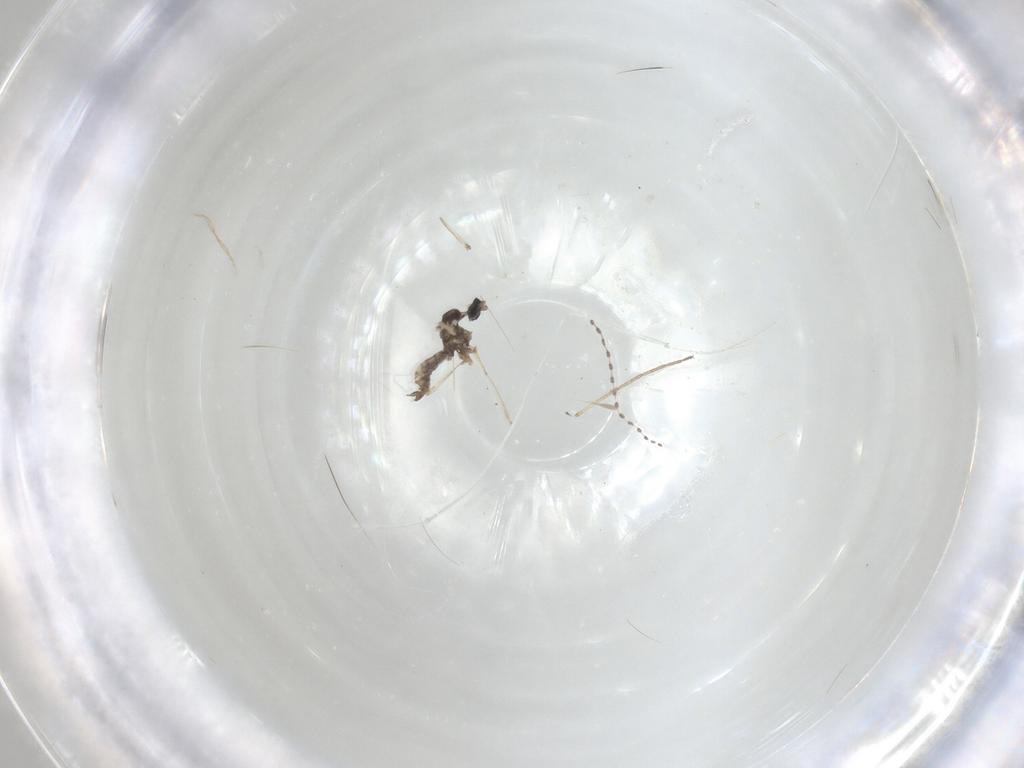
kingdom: Animalia
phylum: Arthropoda
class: Insecta
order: Diptera
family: Cecidomyiidae
